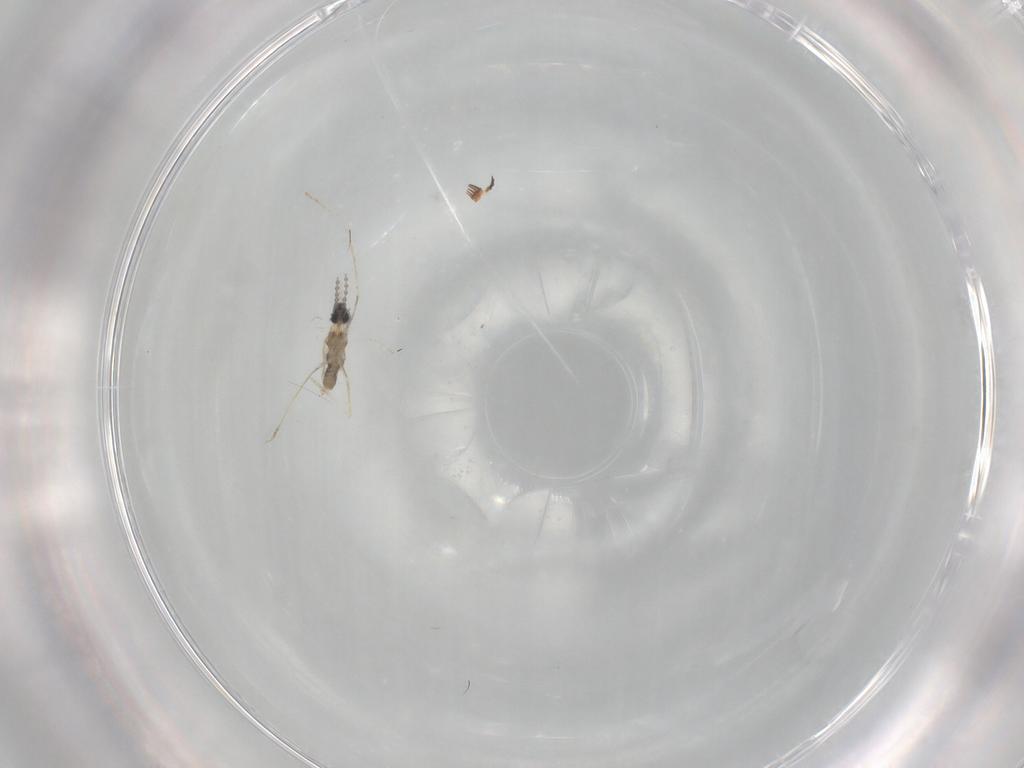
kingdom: Animalia
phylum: Arthropoda
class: Insecta
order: Diptera
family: Cecidomyiidae
